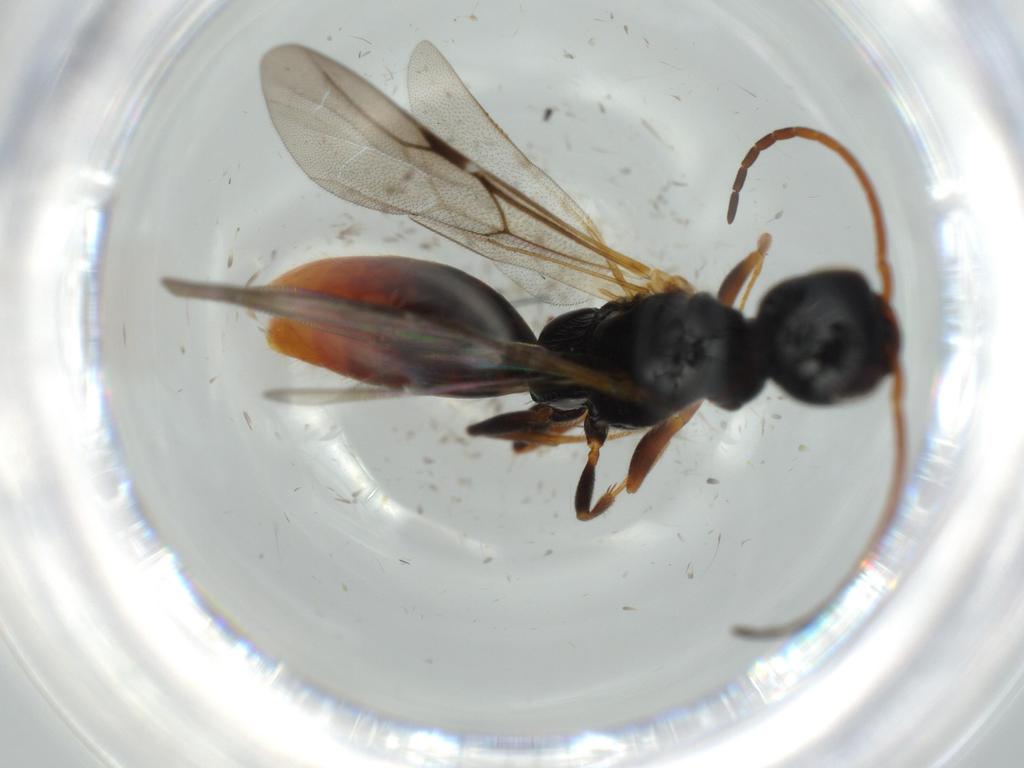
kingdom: Animalia
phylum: Arthropoda
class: Insecta
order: Hymenoptera
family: Bethylidae
